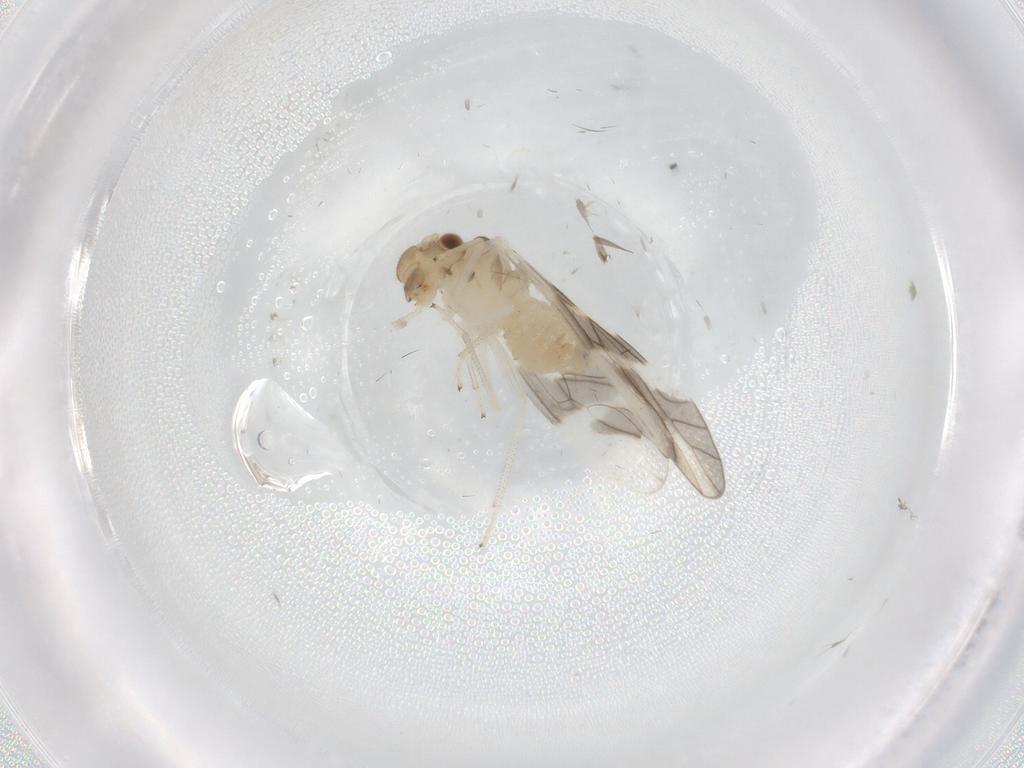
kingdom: Animalia
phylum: Arthropoda
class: Insecta
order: Psocodea
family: Caeciliusidae
